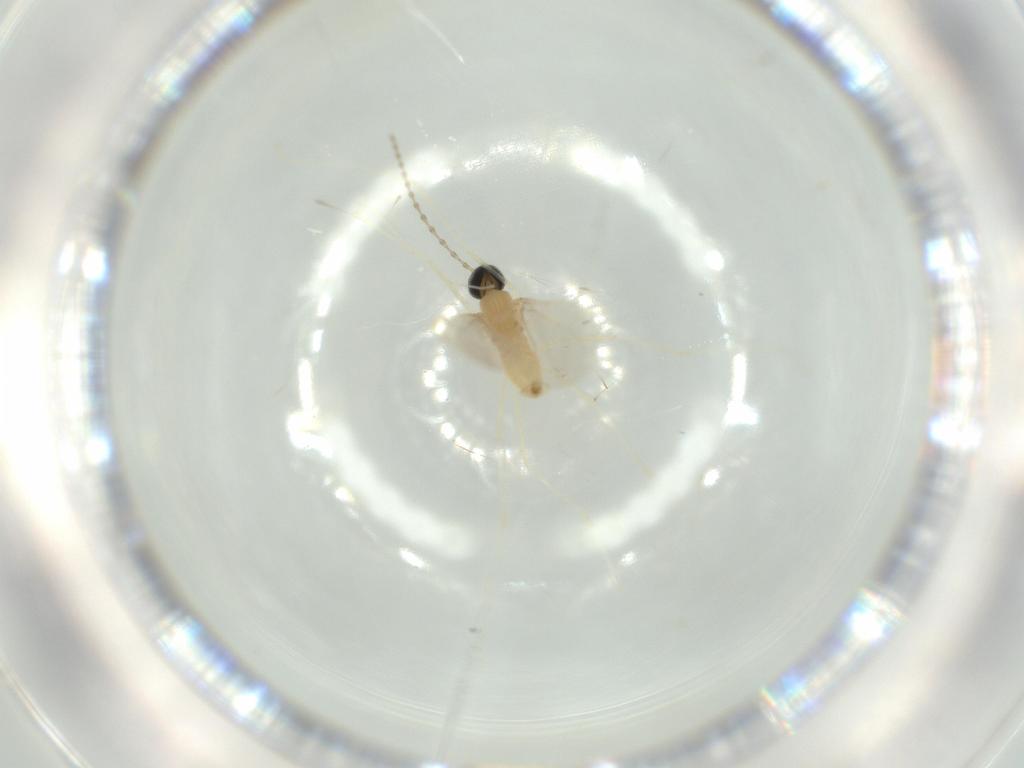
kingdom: Animalia
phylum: Arthropoda
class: Insecta
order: Diptera
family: Cecidomyiidae
